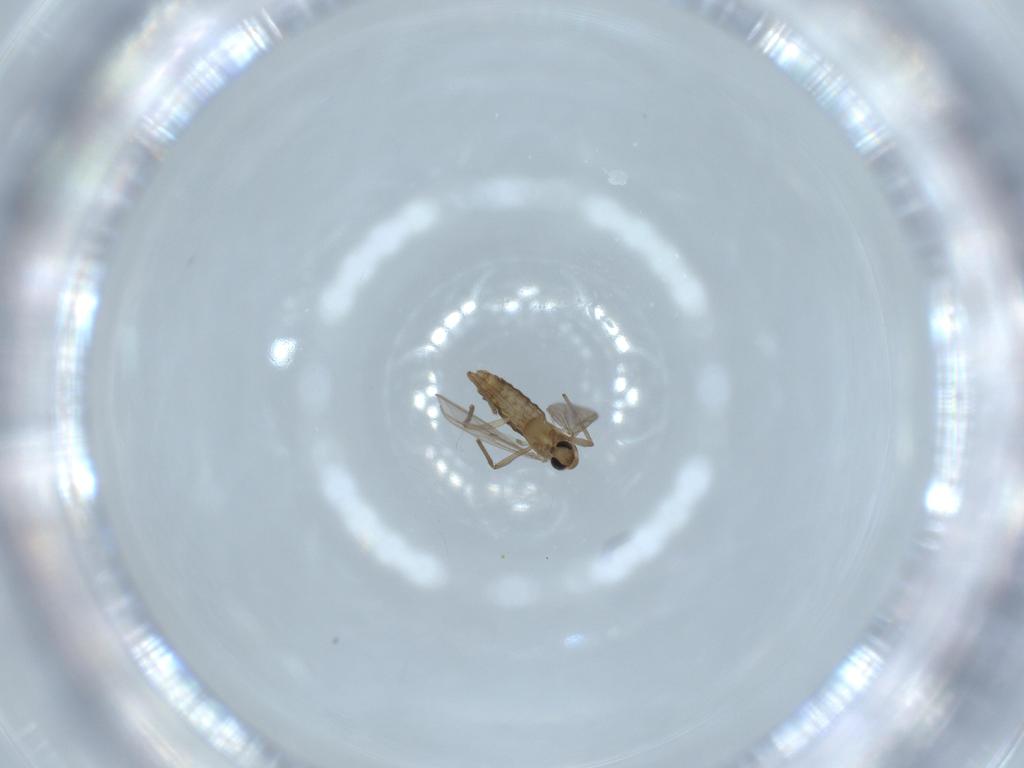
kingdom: Animalia
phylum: Arthropoda
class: Insecta
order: Diptera
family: Chironomidae
